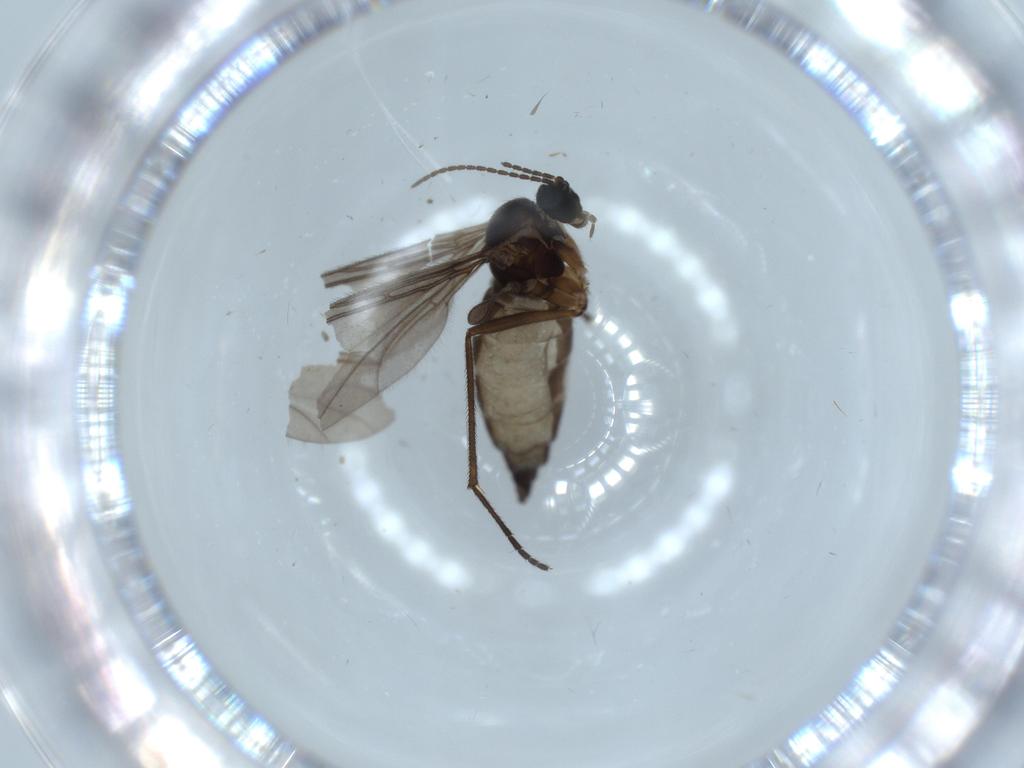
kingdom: Animalia
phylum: Arthropoda
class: Insecta
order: Diptera
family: Sciaridae
